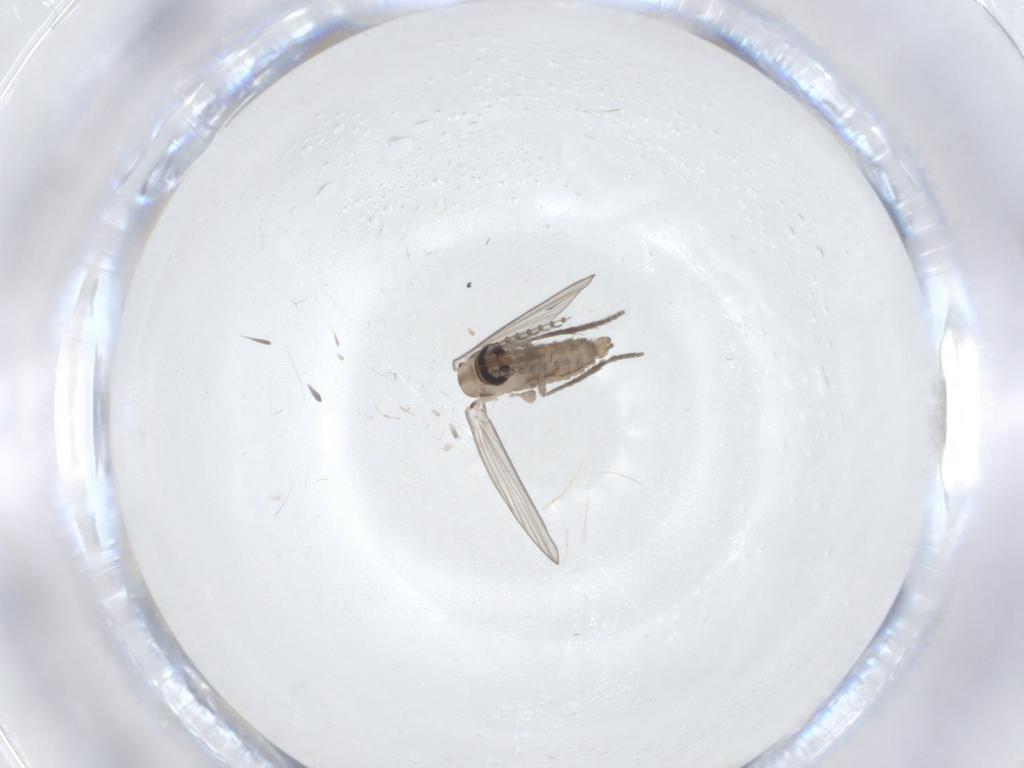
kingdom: Animalia
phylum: Arthropoda
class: Insecta
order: Diptera
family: Psychodidae
